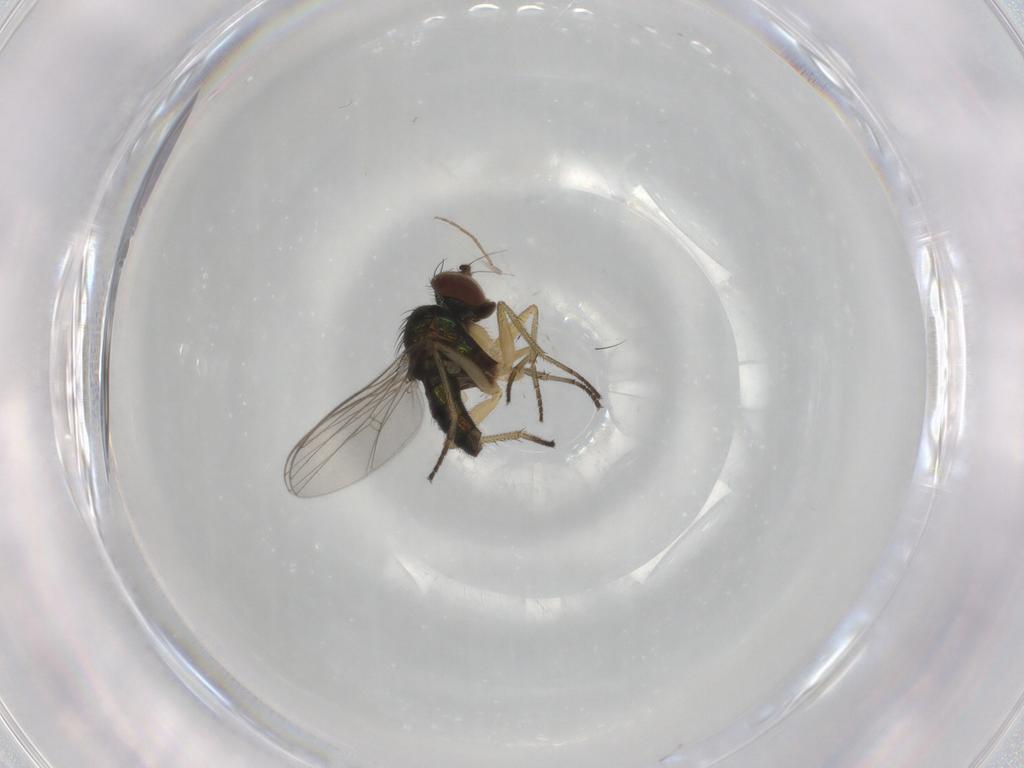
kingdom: Animalia
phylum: Arthropoda
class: Insecta
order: Diptera
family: Dolichopodidae
